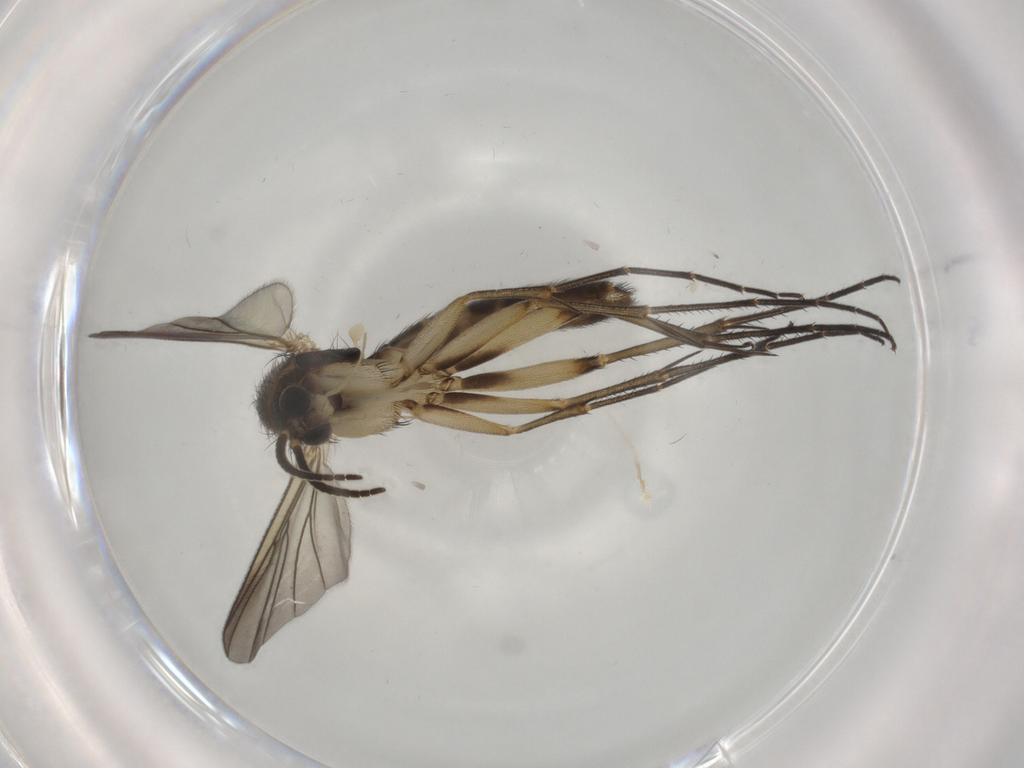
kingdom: Animalia
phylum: Arthropoda
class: Insecta
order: Diptera
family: Mycetophilidae
